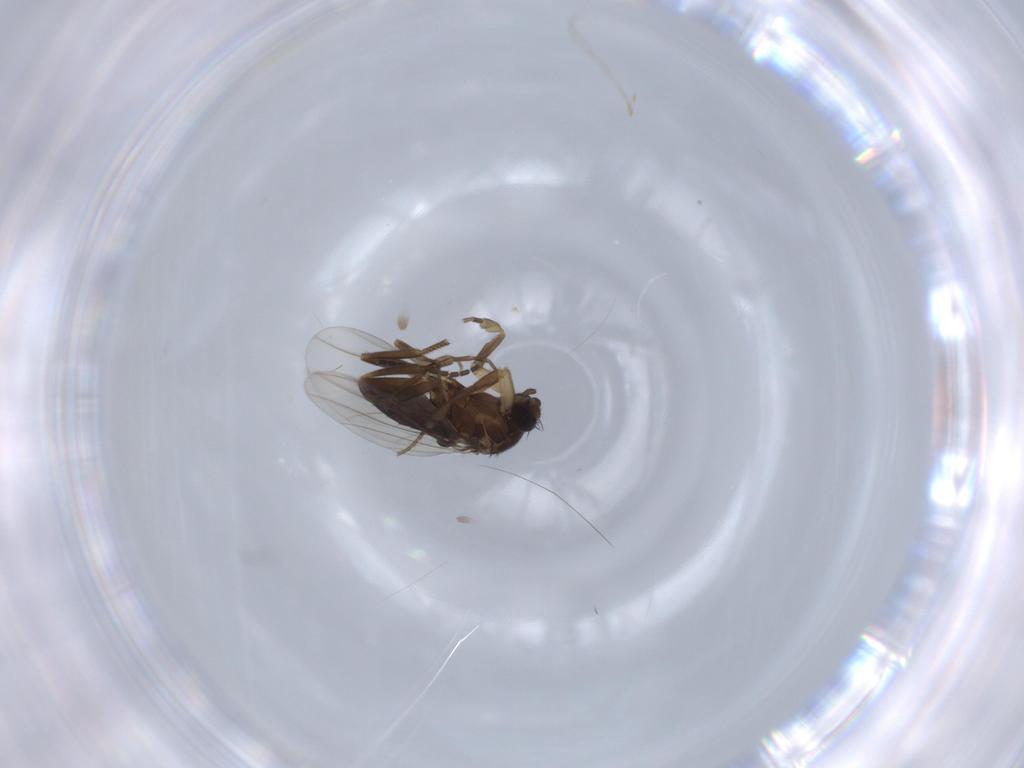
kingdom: Animalia
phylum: Arthropoda
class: Insecta
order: Diptera
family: Phoridae
